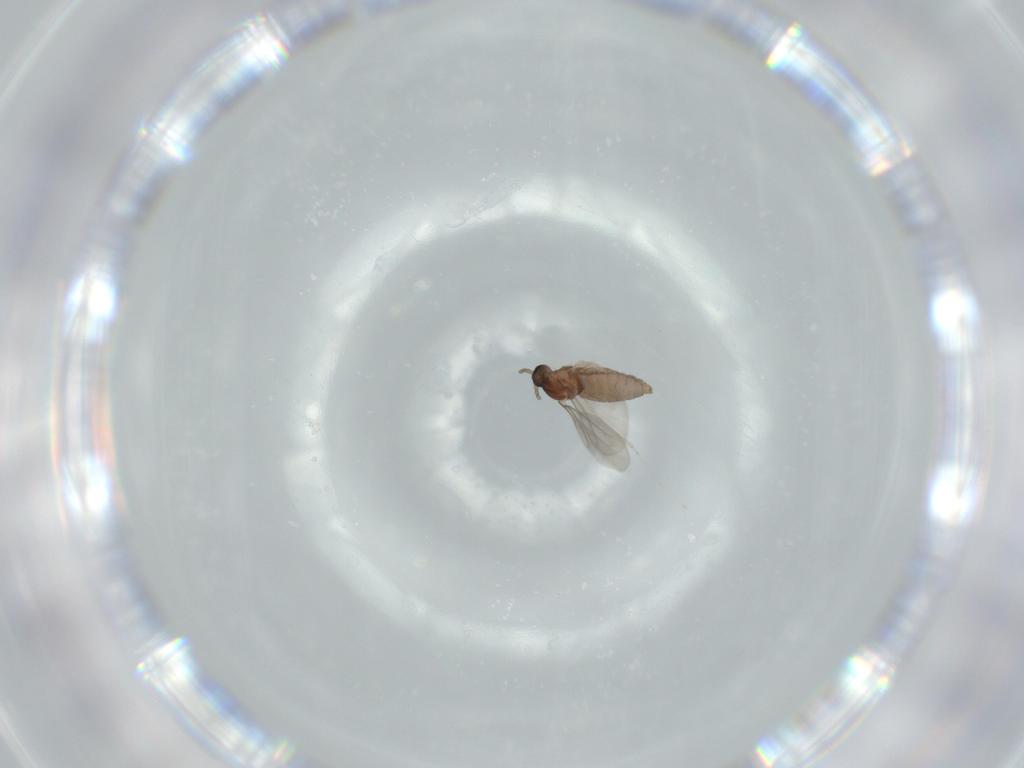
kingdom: Animalia
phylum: Arthropoda
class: Insecta
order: Diptera
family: Cecidomyiidae
